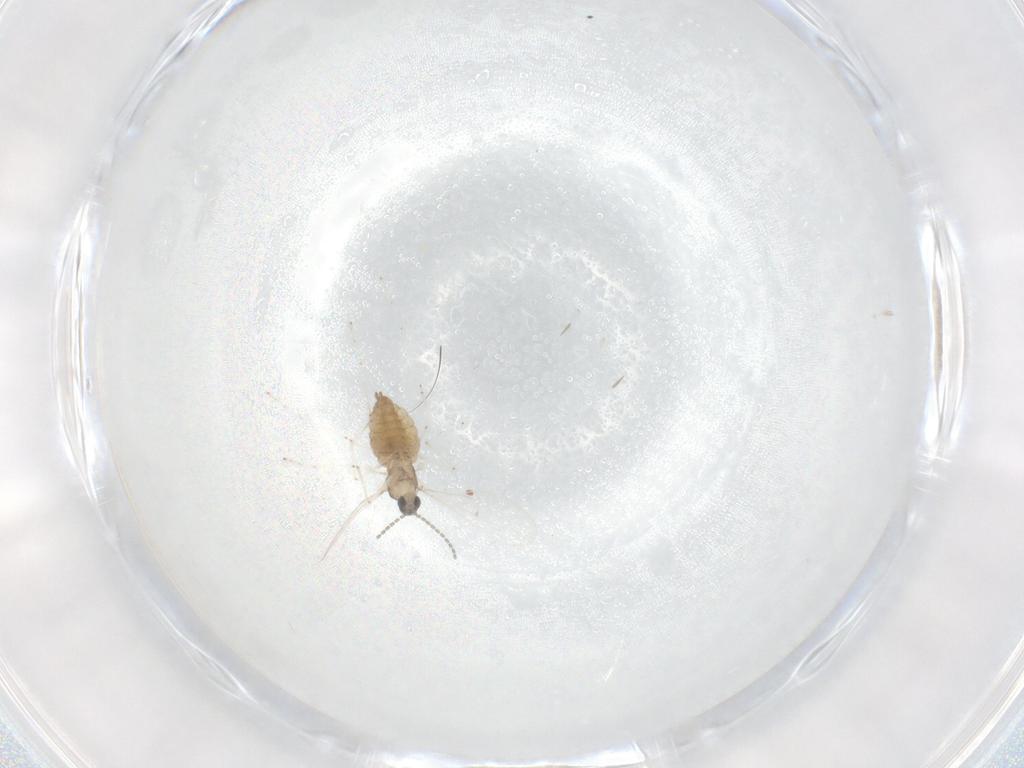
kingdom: Animalia
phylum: Arthropoda
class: Insecta
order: Diptera
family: Cecidomyiidae
